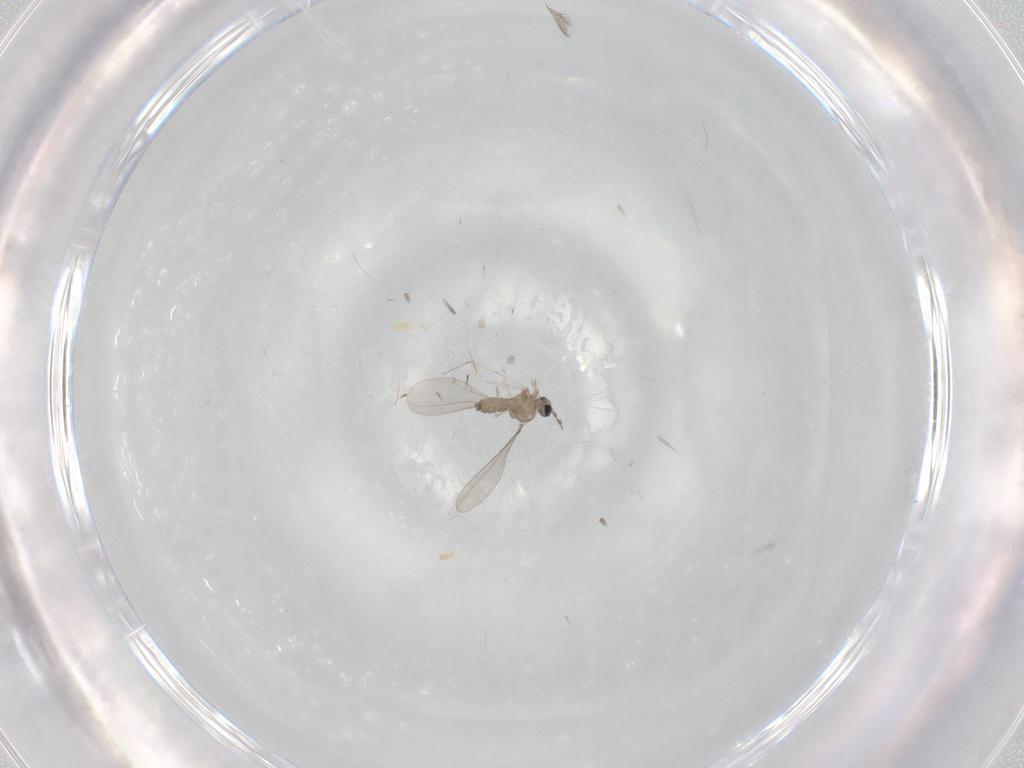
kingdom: Animalia
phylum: Arthropoda
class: Insecta
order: Diptera
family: Chironomidae
